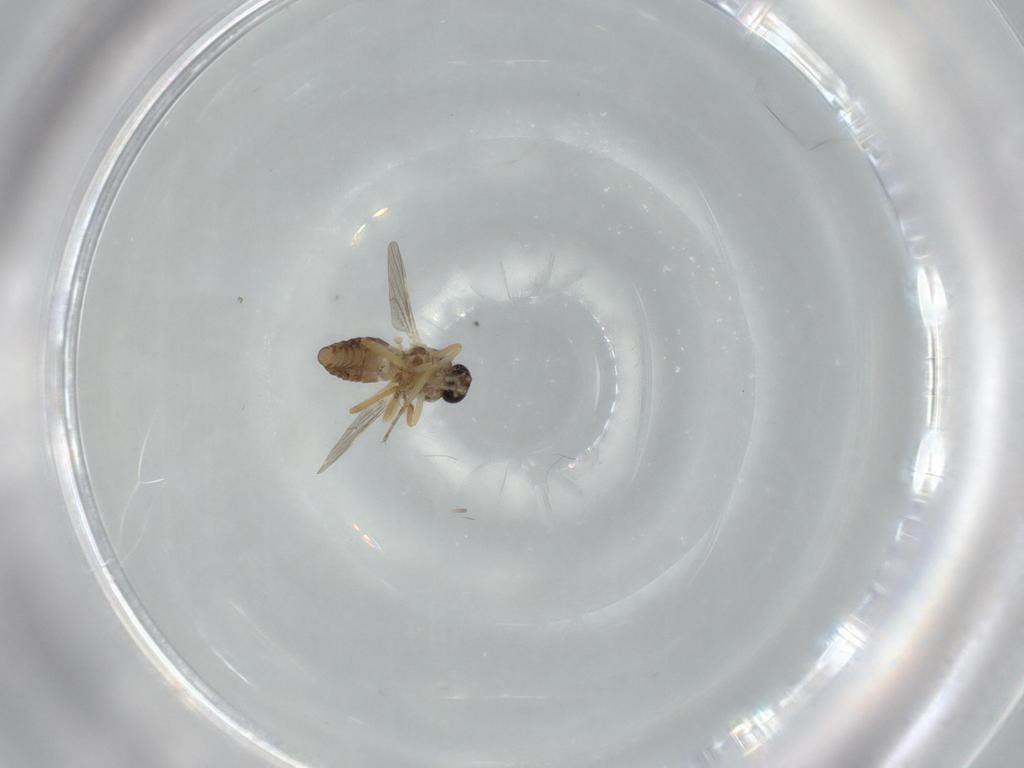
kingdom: Animalia
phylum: Arthropoda
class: Insecta
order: Diptera
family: Ceratopogonidae
